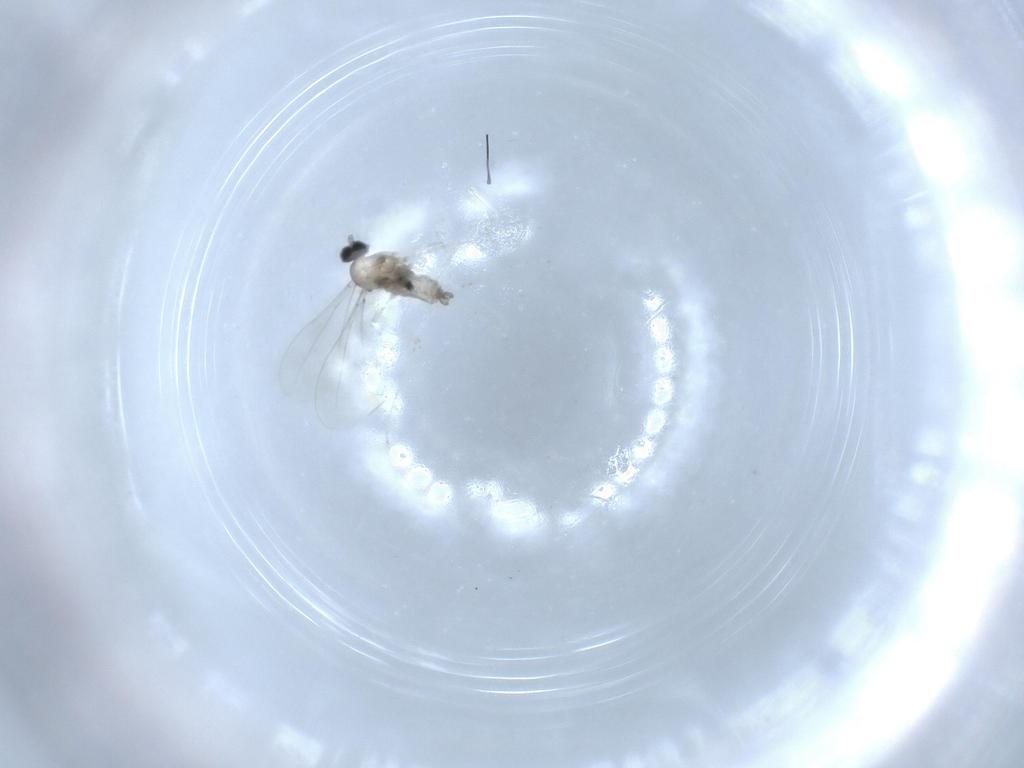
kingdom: Animalia
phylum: Arthropoda
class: Insecta
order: Diptera
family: Cecidomyiidae
